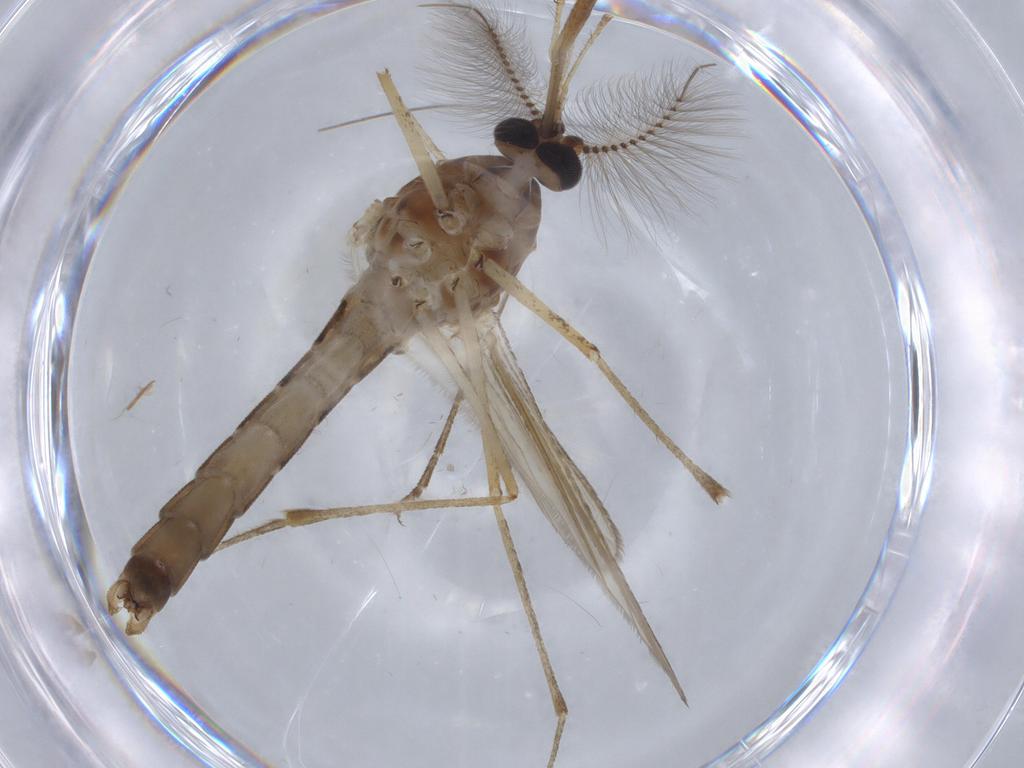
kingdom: Animalia
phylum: Arthropoda
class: Insecta
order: Diptera
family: Culicidae
